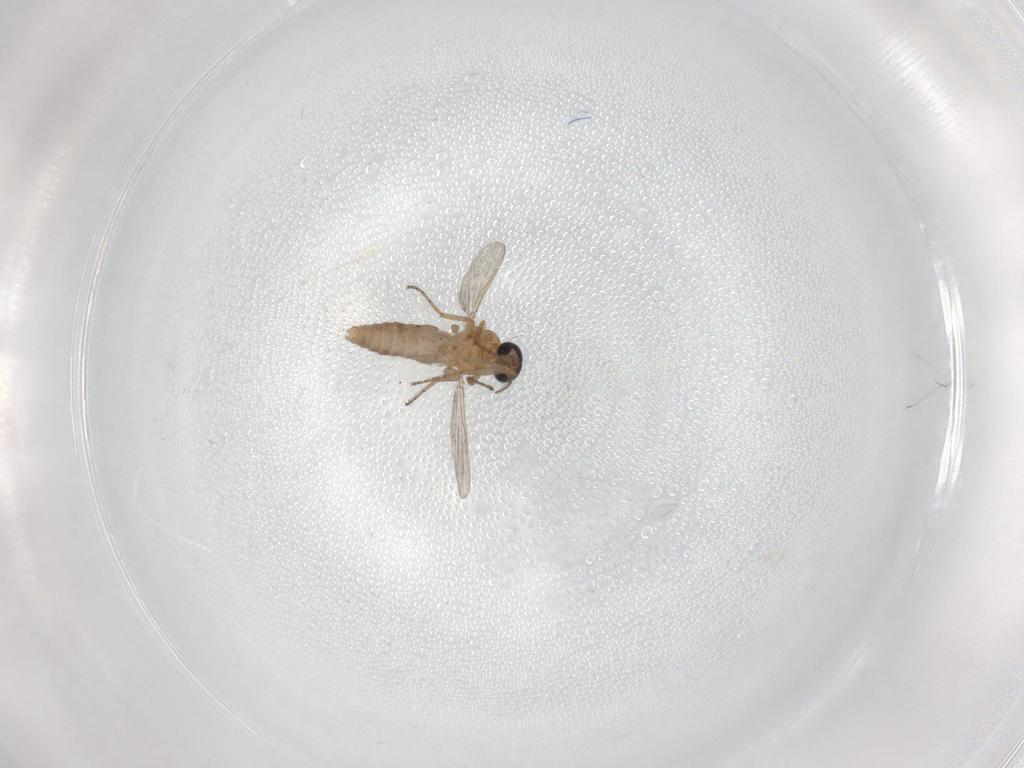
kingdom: Animalia
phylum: Arthropoda
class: Insecta
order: Diptera
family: Ceratopogonidae
